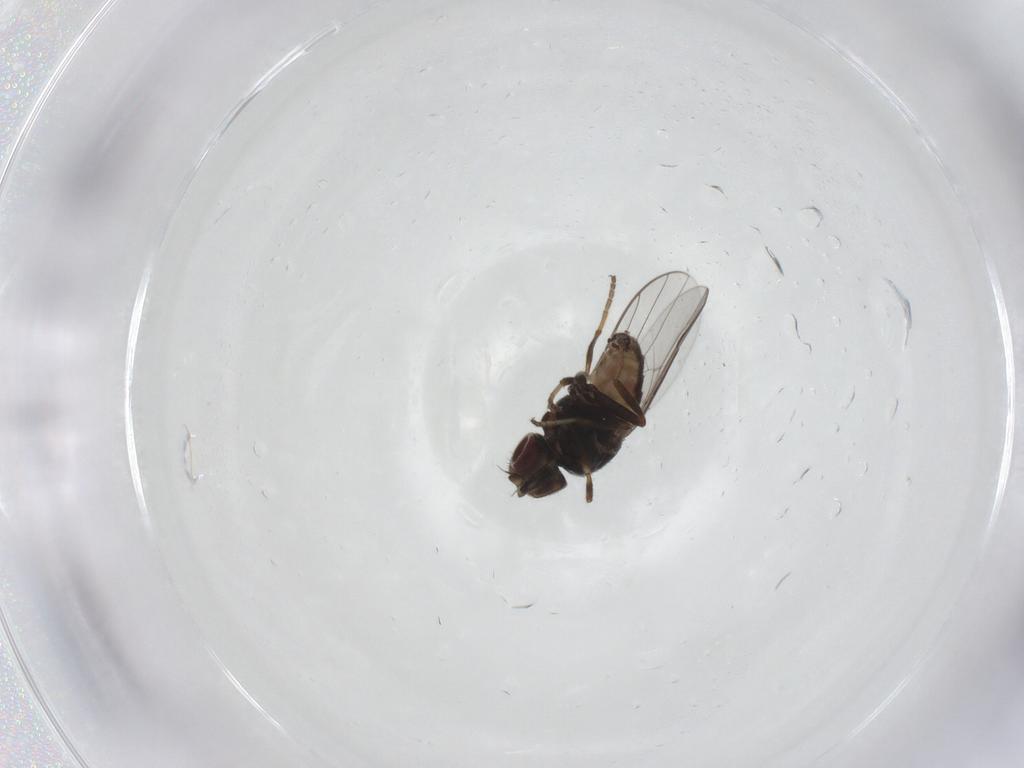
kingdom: Animalia
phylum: Arthropoda
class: Insecta
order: Diptera
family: Chloropidae
